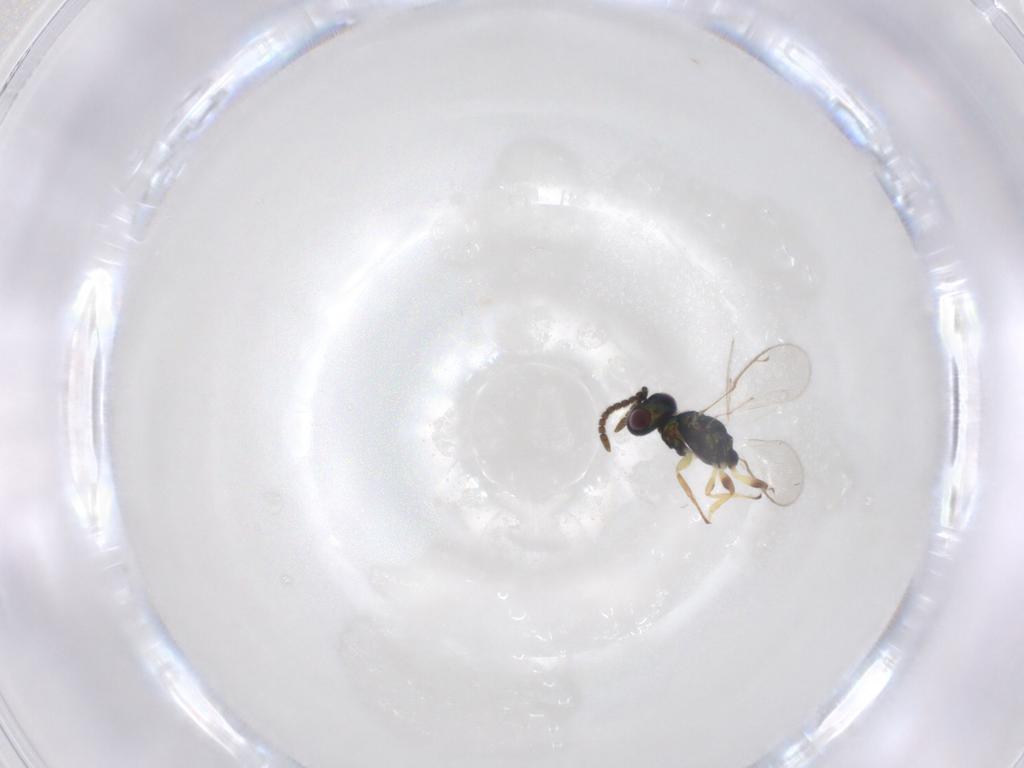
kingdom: Animalia
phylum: Arthropoda
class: Insecta
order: Hymenoptera
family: Eupelmidae
